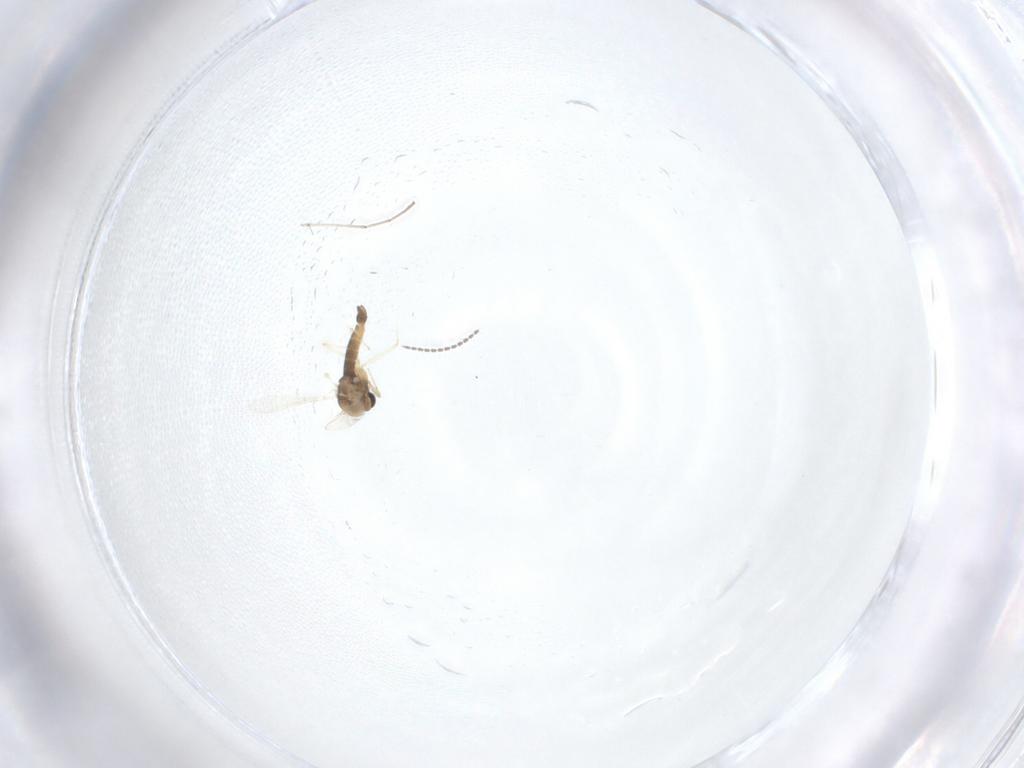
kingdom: Animalia
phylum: Arthropoda
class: Insecta
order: Diptera
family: Cecidomyiidae
